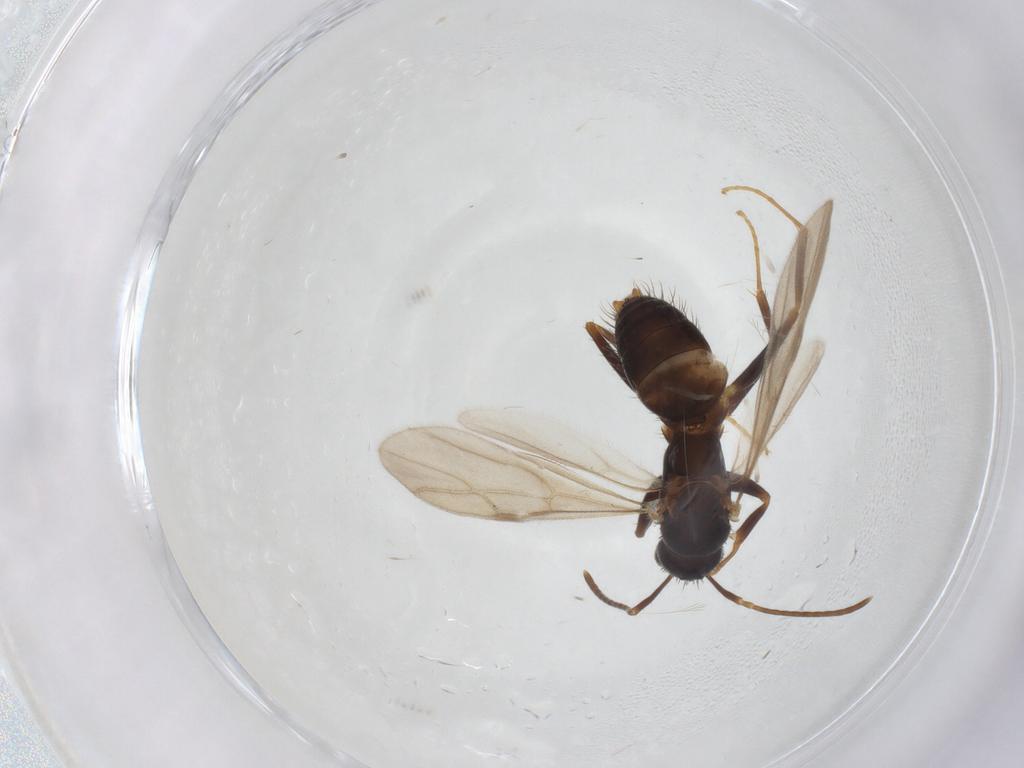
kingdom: Animalia
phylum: Arthropoda
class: Insecta
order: Hymenoptera
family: Formicidae
